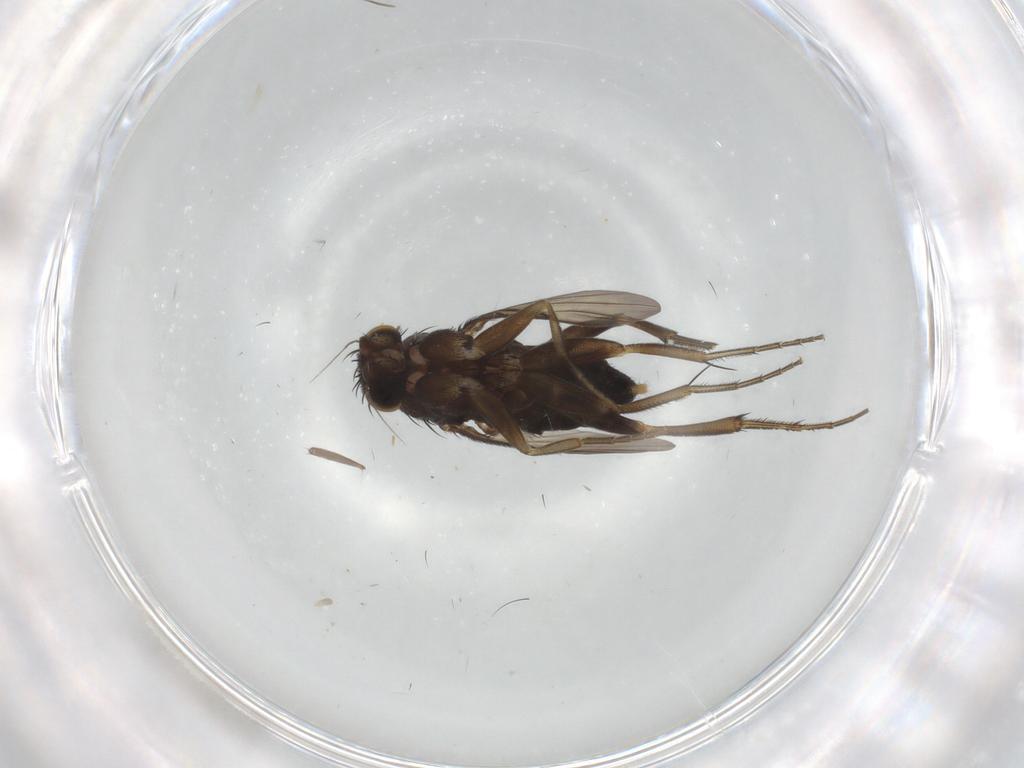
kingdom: Animalia
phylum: Arthropoda
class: Insecta
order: Diptera
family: Phoridae
